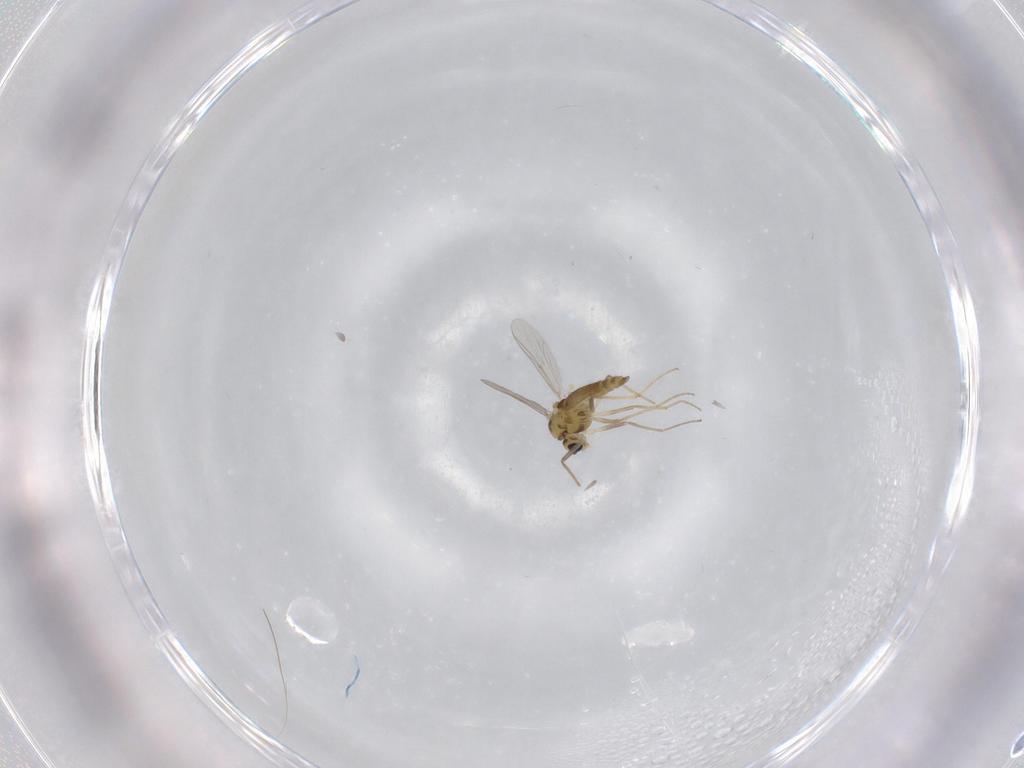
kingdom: Animalia
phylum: Arthropoda
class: Insecta
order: Diptera
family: Chironomidae
